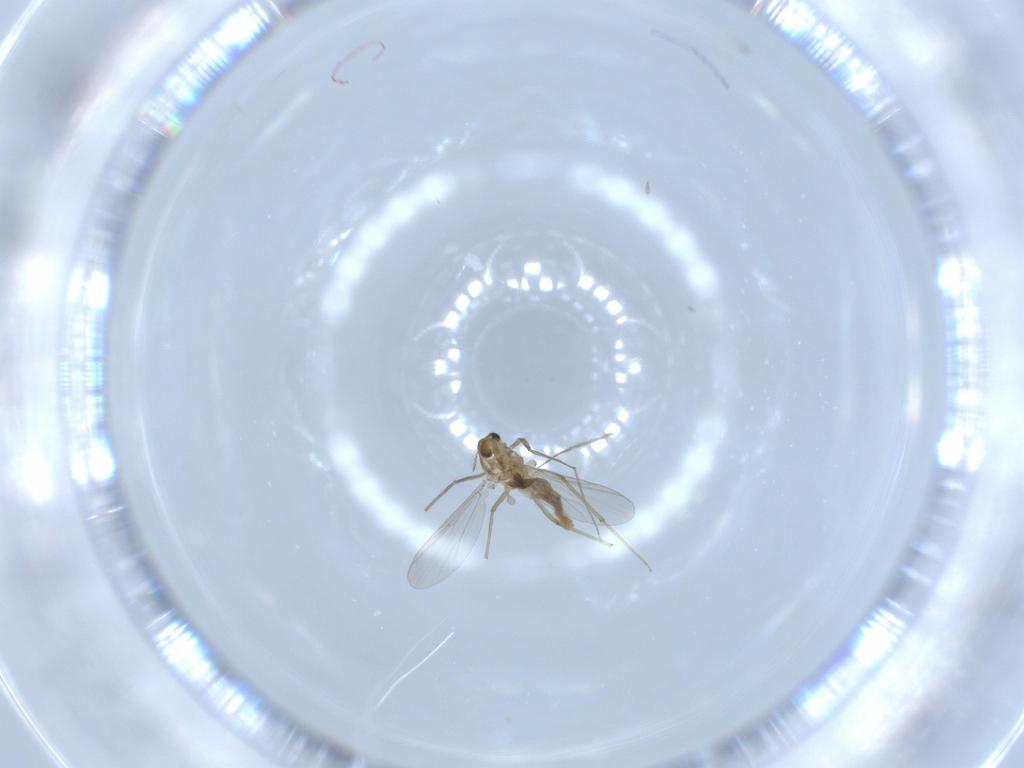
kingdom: Animalia
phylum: Arthropoda
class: Insecta
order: Diptera
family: Chironomidae
